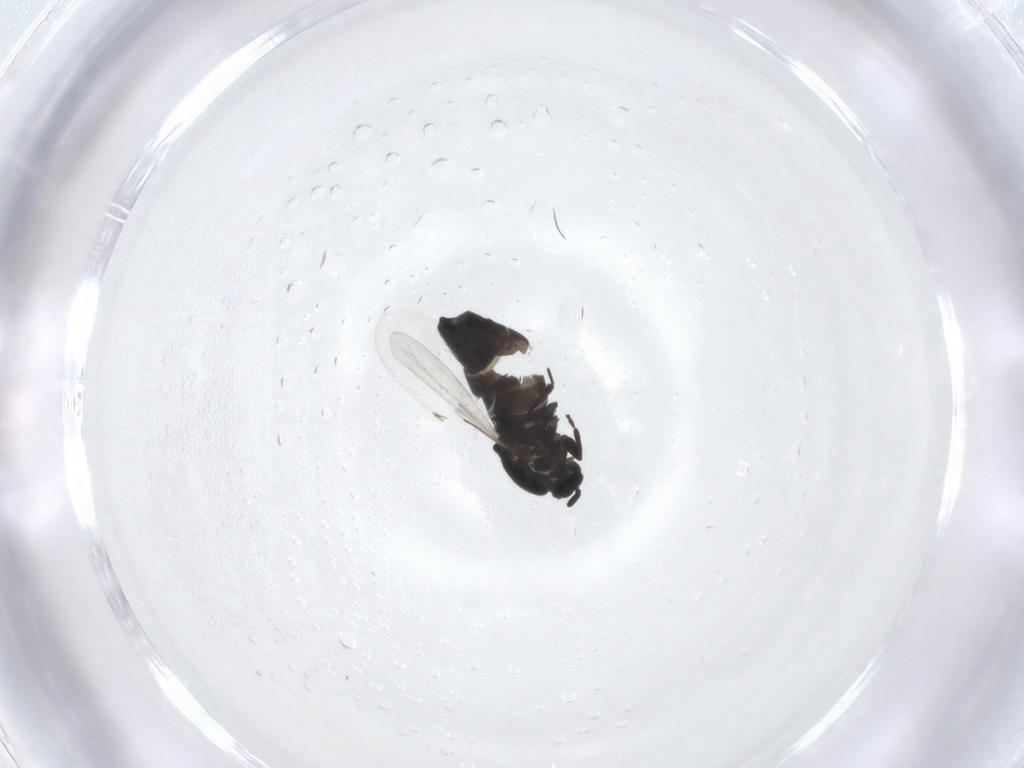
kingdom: Animalia
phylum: Arthropoda
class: Insecta
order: Diptera
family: Scatopsidae
